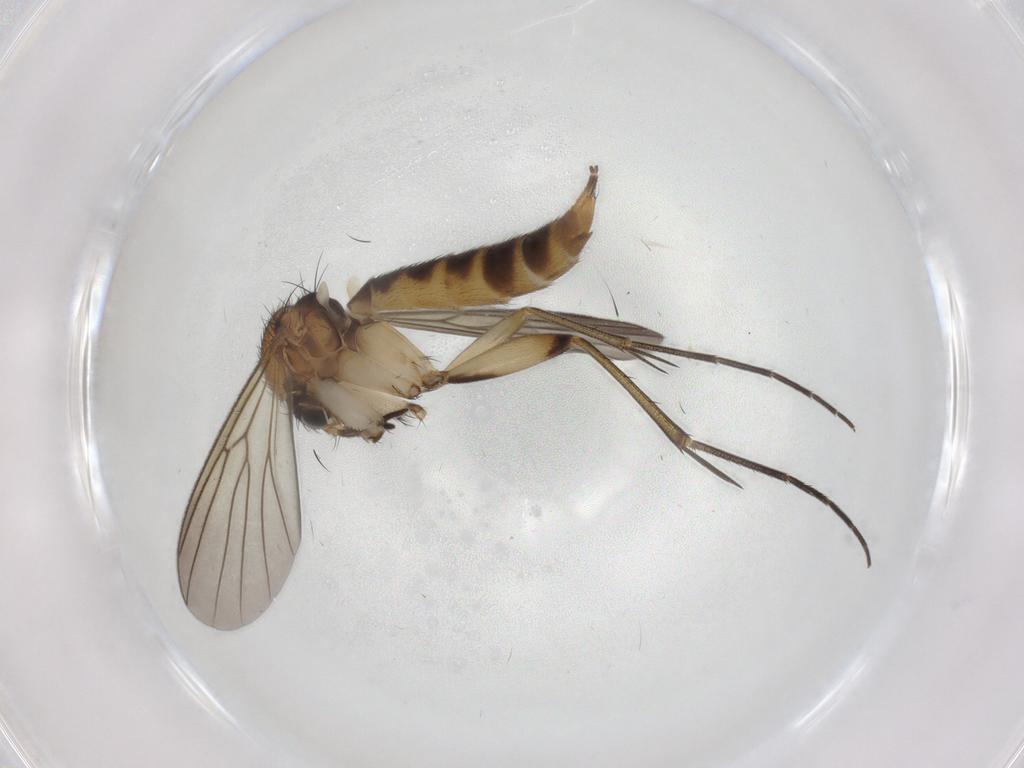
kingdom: Animalia
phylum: Arthropoda
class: Insecta
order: Diptera
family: Mycetophilidae
